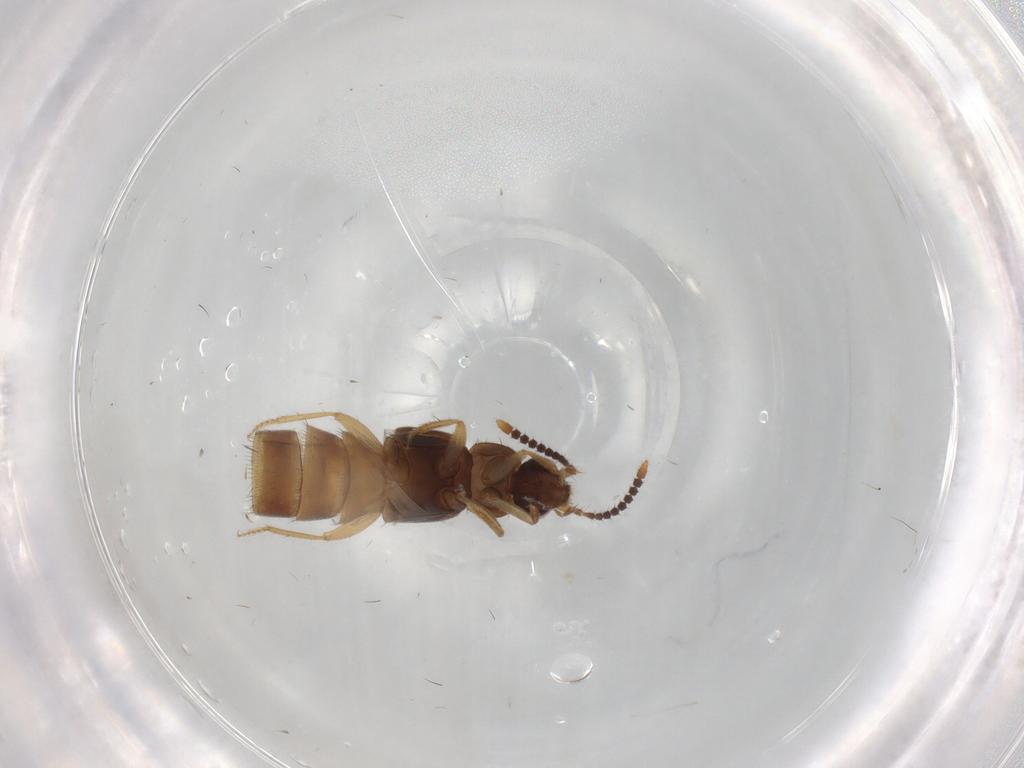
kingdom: Animalia
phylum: Arthropoda
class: Insecta
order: Coleoptera
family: Staphylinidae
